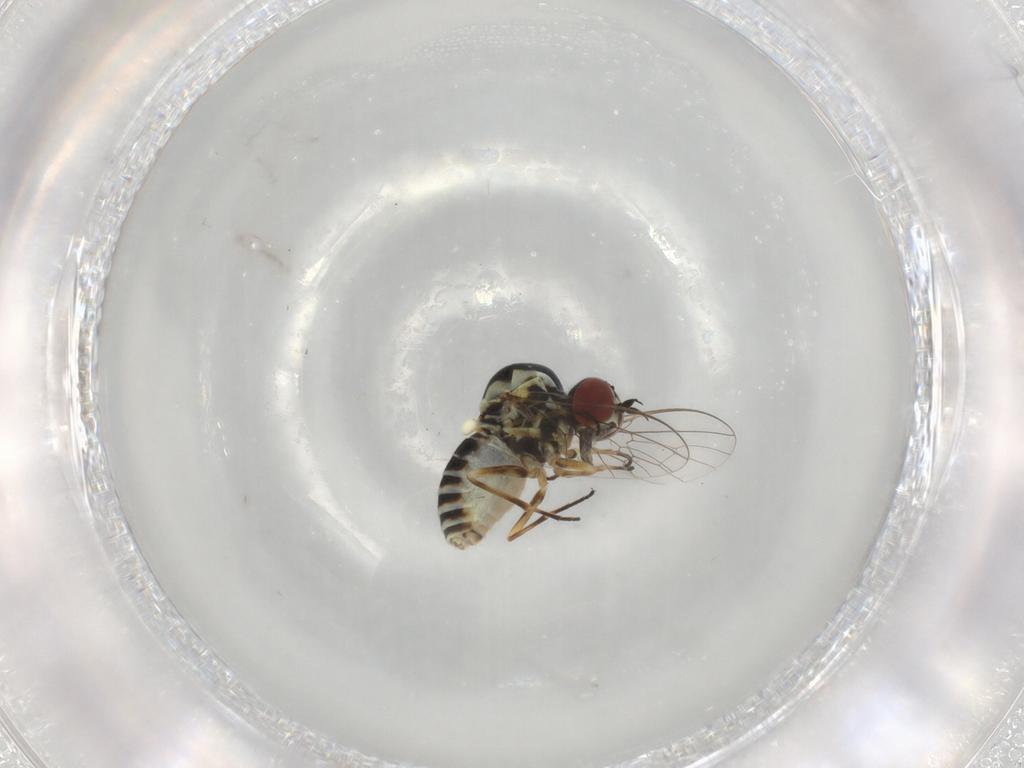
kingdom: Animalia
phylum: Arthropoda
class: Insecta
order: Diptera
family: Bombyliidae
